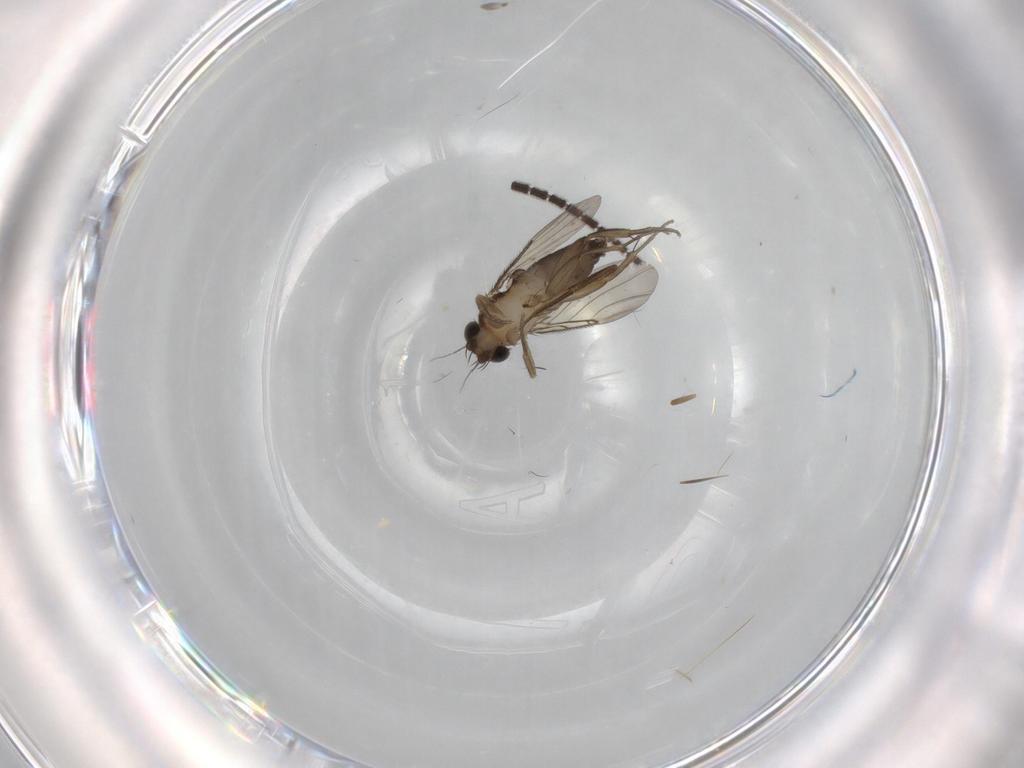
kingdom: Animalia
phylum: Arthropoda
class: Insecta
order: Diptera
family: Phoridae
